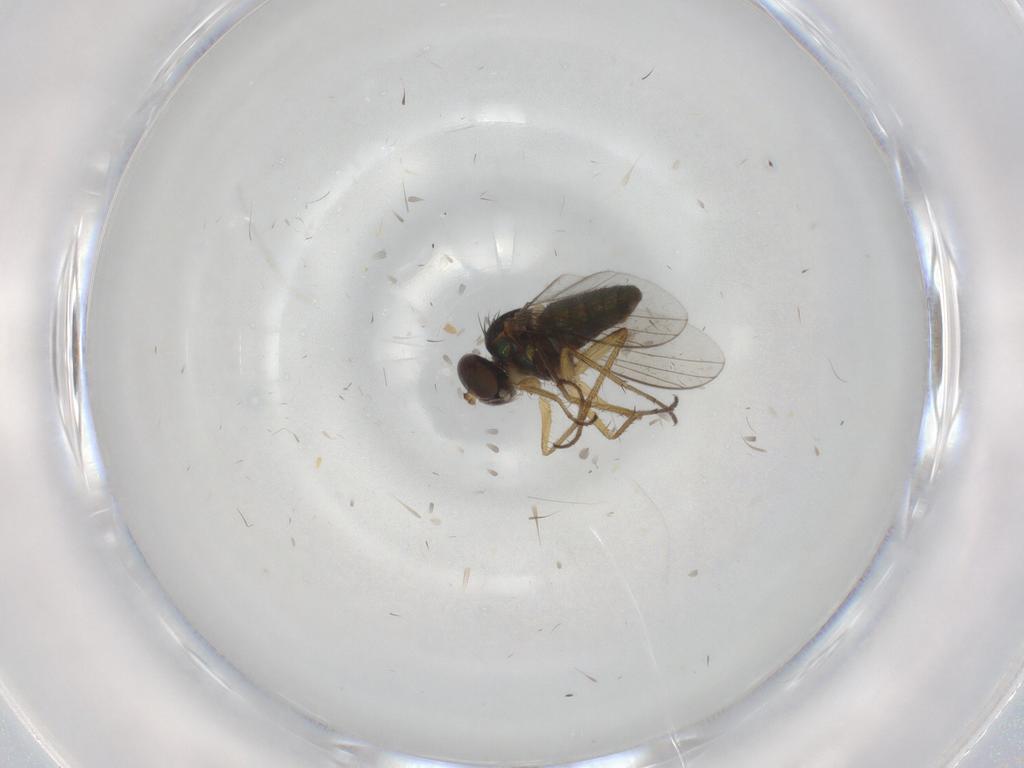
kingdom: Animalia
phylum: Arthropoda
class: Insecta
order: Diptera
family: Dolichopodidae
